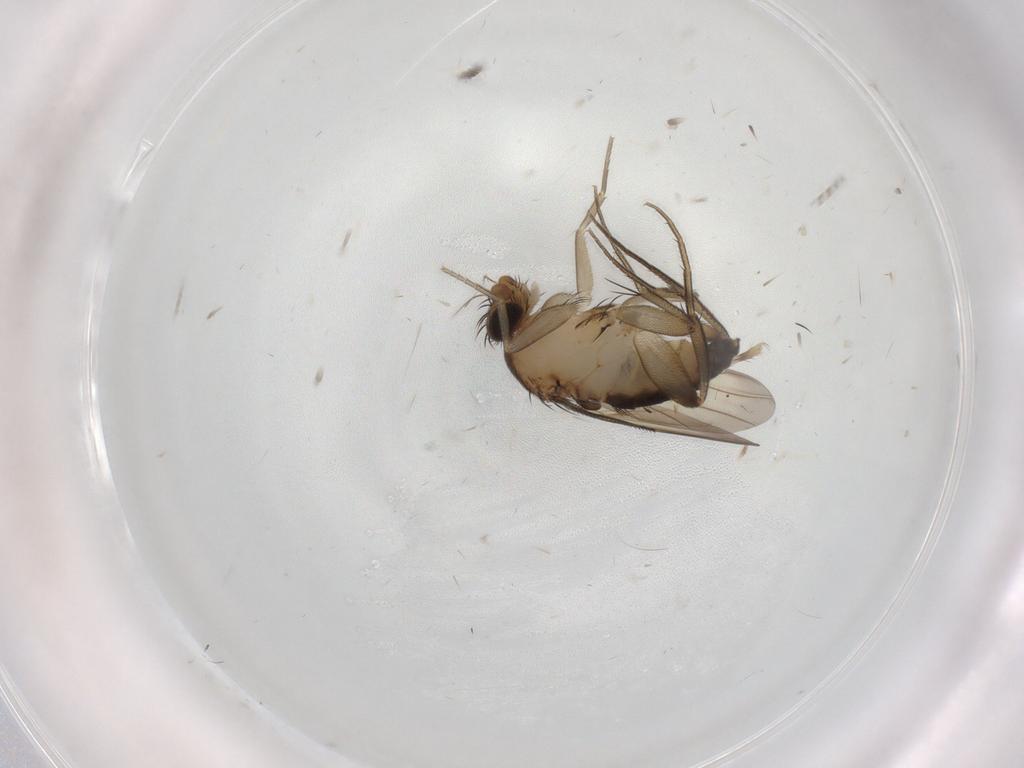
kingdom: Animalia
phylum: Arthropoda
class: Insecta
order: Diptera
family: Phoridae
